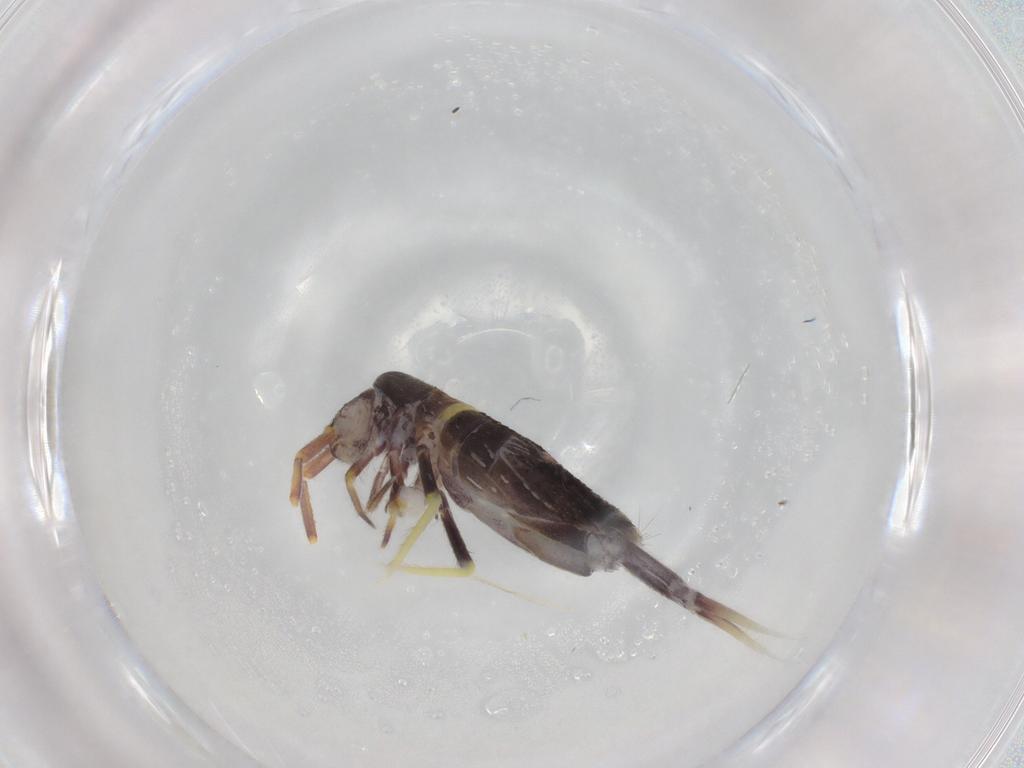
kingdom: Animalia
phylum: Arthropoda
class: Collembola
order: Entomobryomorpha
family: Entomobryidae
